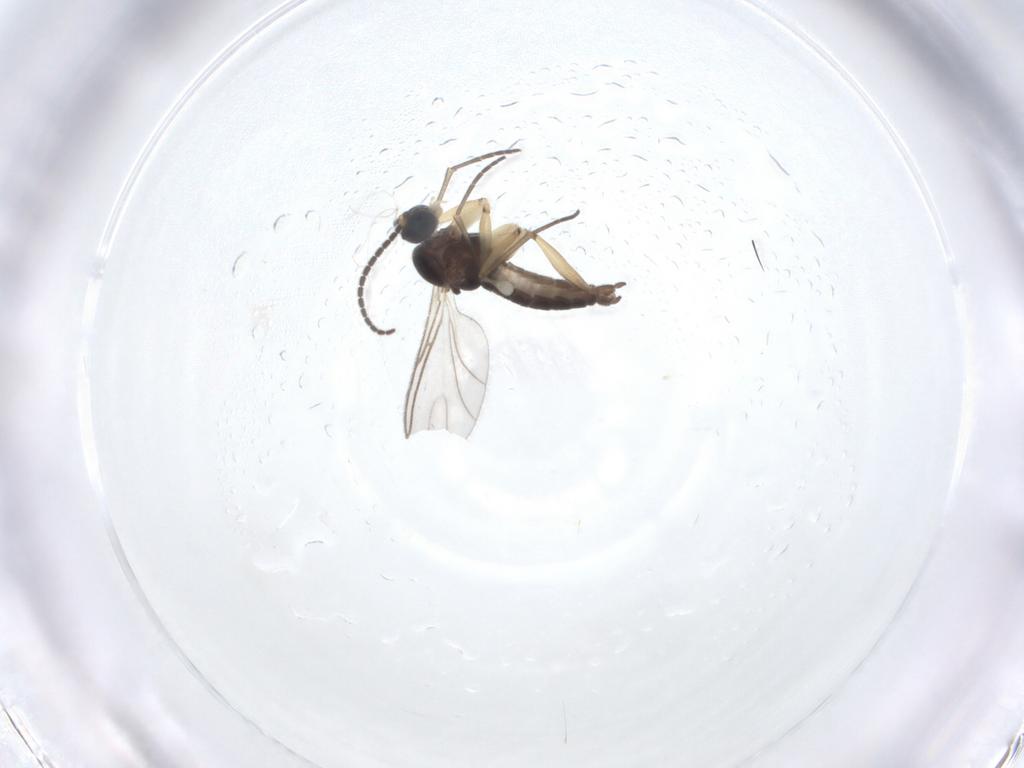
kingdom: Animalia
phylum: Arthropoda
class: Insecta
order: Diptera
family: Sciaridae
